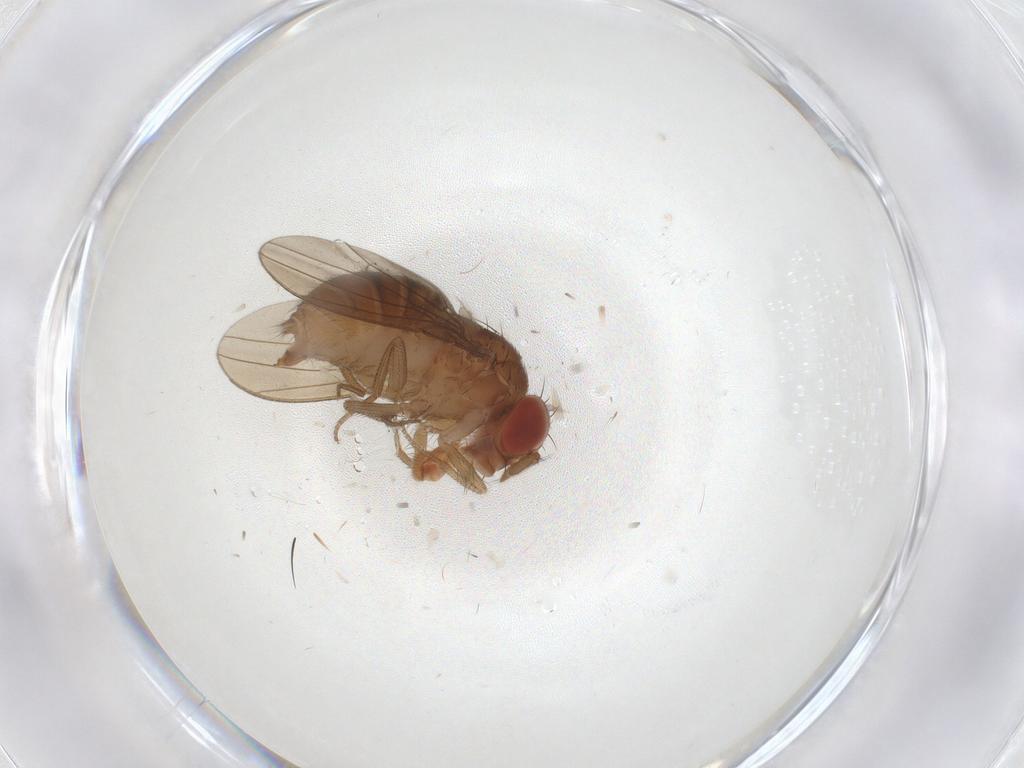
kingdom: Animalia
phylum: Arthropoda
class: Insecta
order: Diptera
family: Drosophilidae
